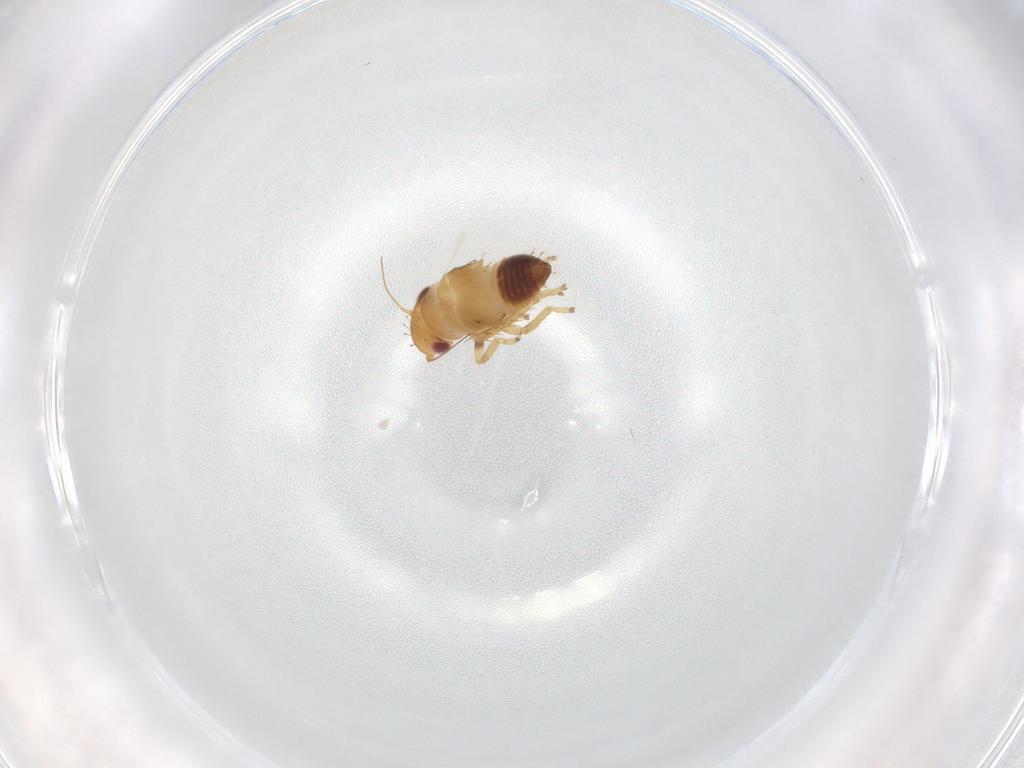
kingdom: Animalia
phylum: Arthropoda
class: Insecta
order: Hemiptera
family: Cicadellidae
